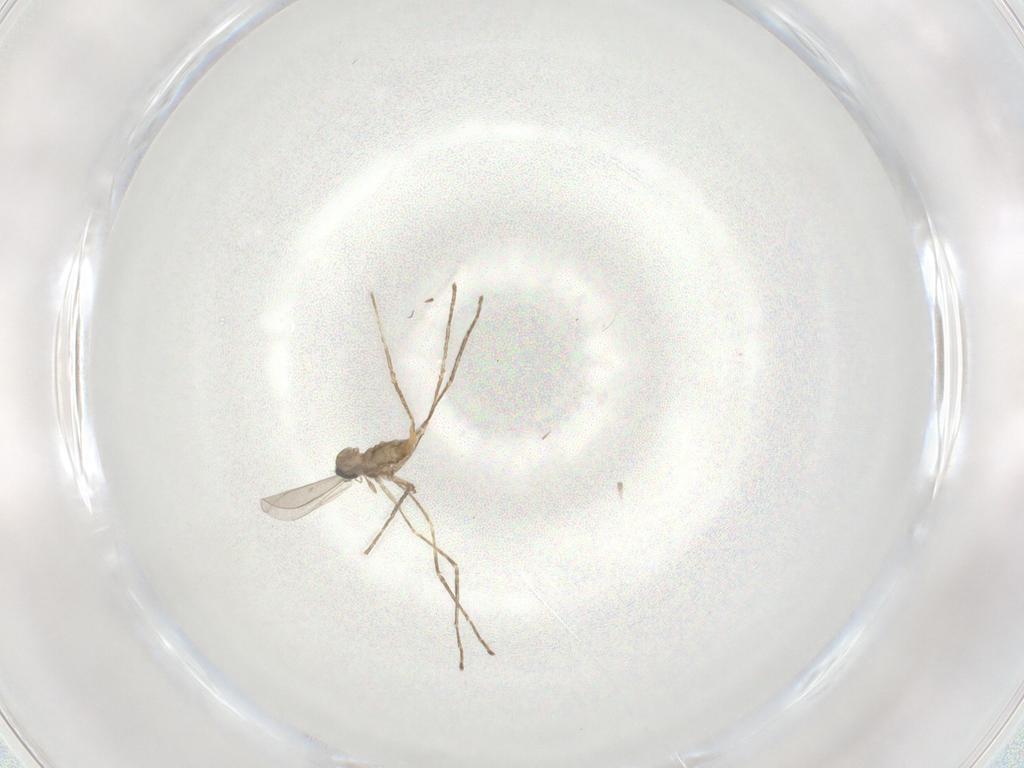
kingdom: Animalia
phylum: Arthropoda
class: Insecta
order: Diptera
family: Cecidomyiidae
